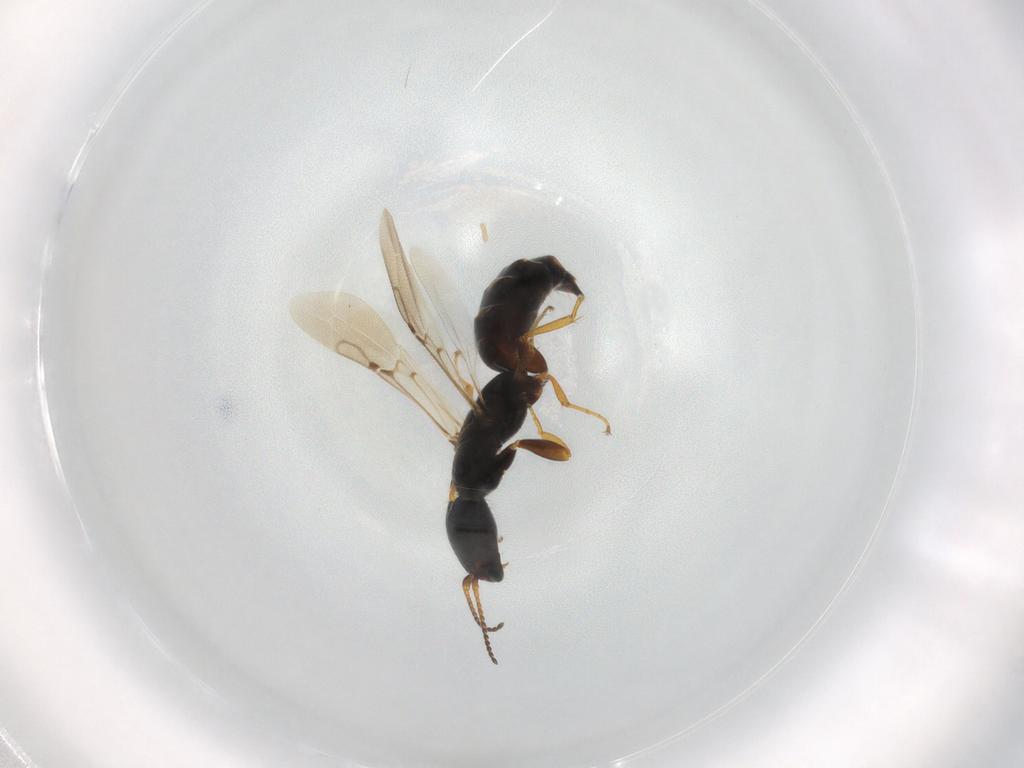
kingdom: Animalia
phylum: Arthropoda
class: Insecta
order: Hymenoptera
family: Bethylidae
